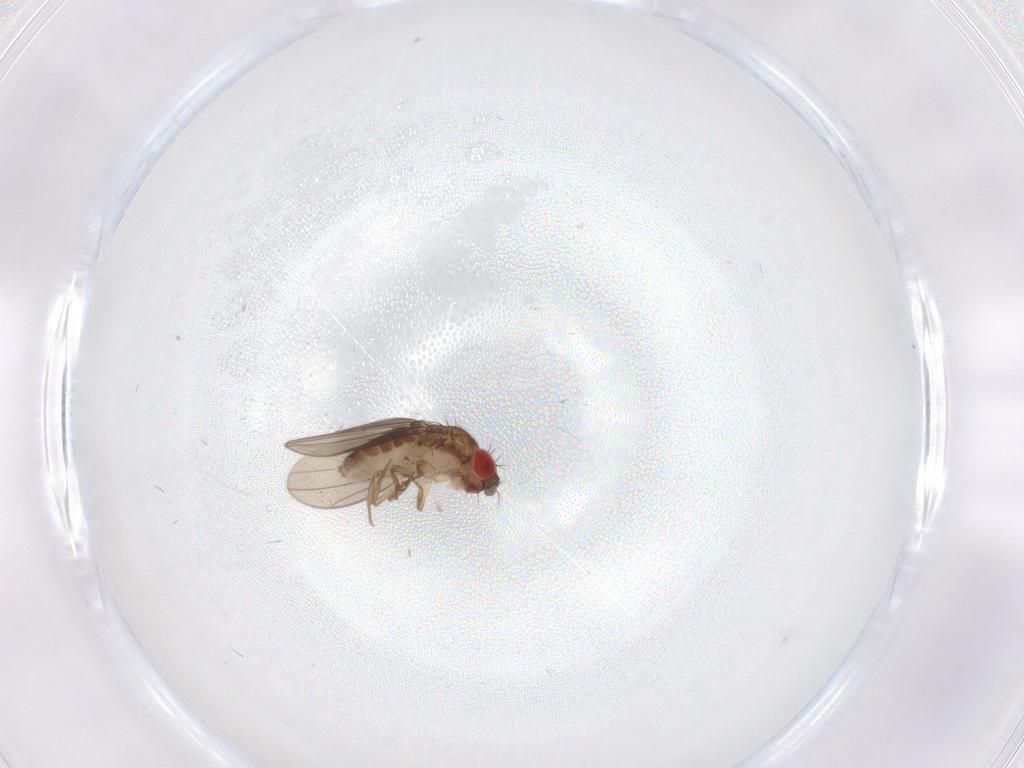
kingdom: Animalia
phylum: Arthropoda
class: Insecta
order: Diptera
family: Drosophilidae
